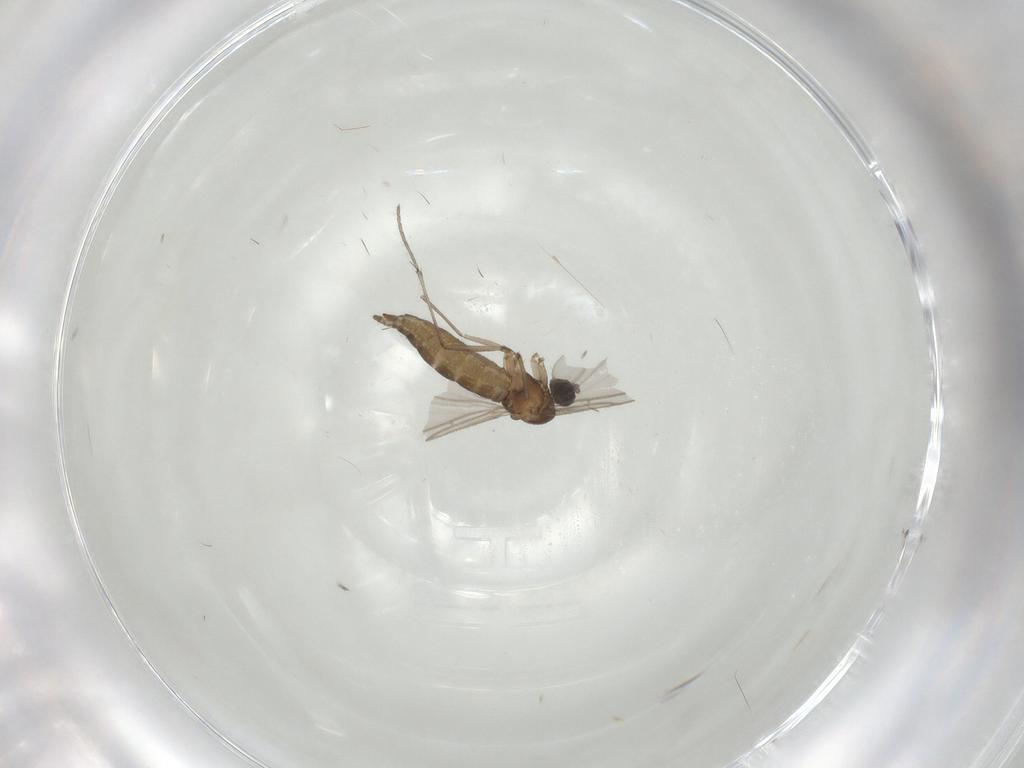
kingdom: Animalia
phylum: Arthropoda
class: Insecta
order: Diptera
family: Sciaridae
